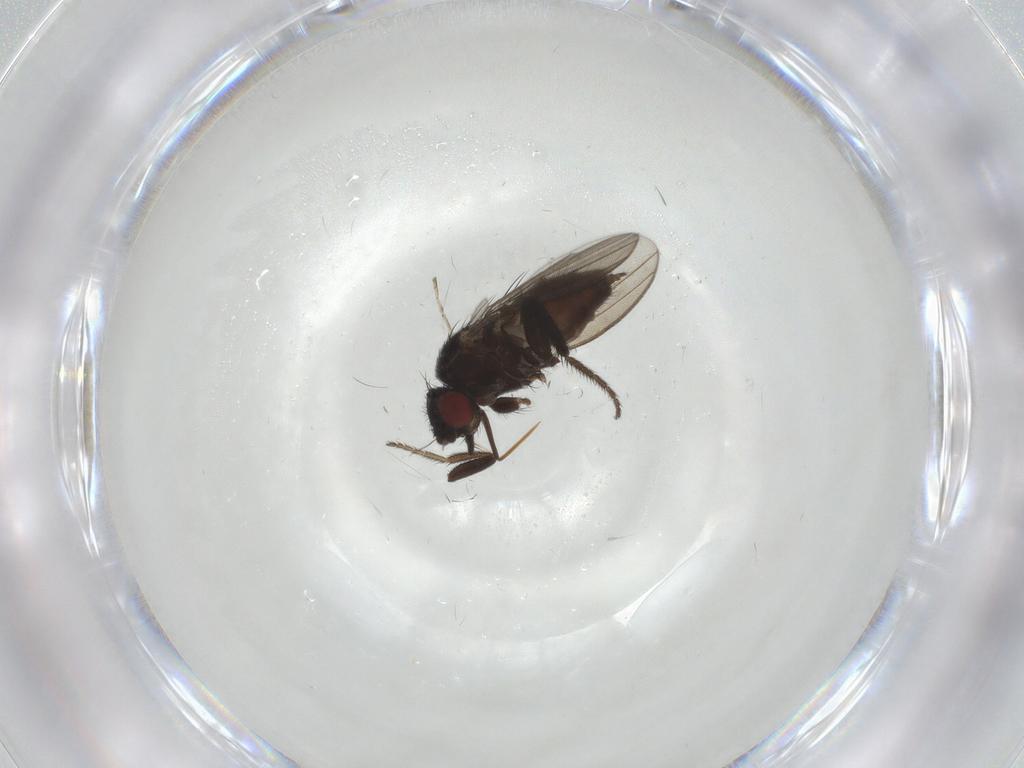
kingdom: Animalia
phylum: Arthropoda
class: Insecta
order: Diptera
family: Milichiidae
